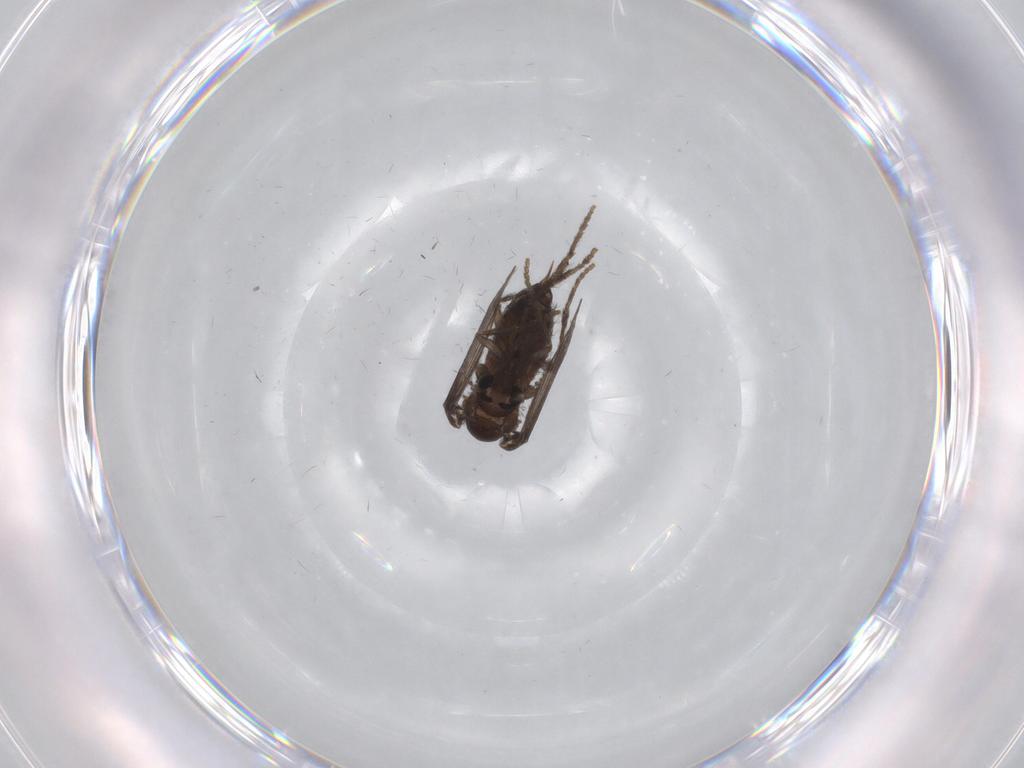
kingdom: Animalia
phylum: Arthropoda
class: Insecta
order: Diptera
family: Psychodidae
